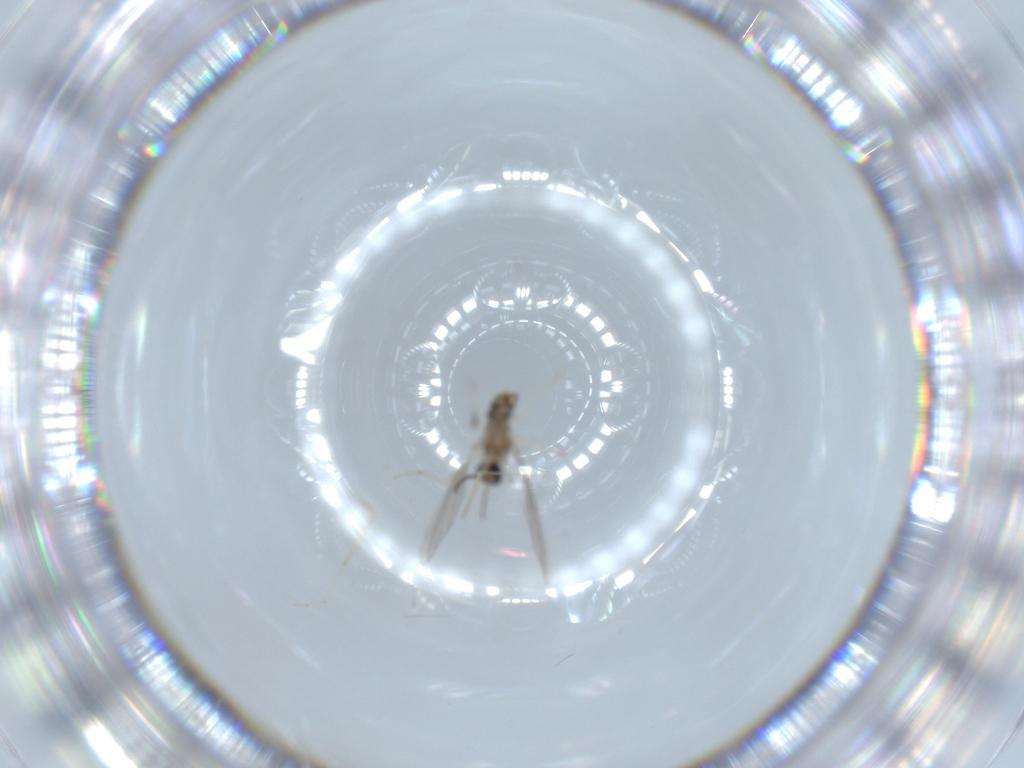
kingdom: Animalia
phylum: Arthropoda
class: Insecta
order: Diptera
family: Cecidomyiidae
